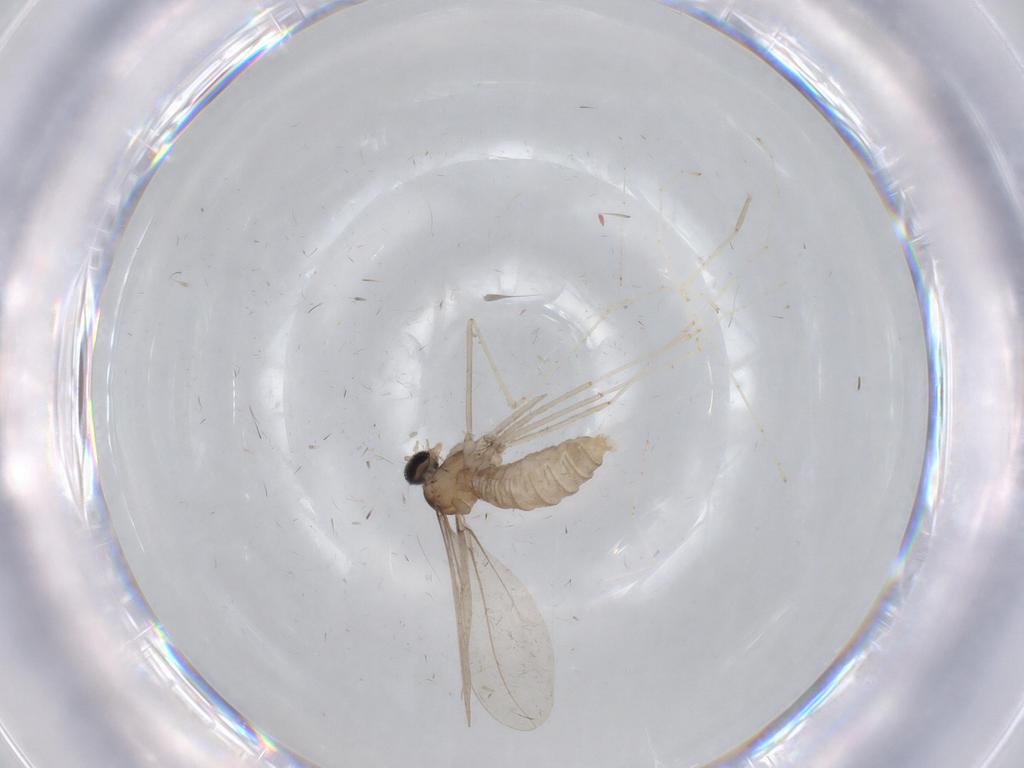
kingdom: Animalia
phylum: Arthropoda
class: Insecta
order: Diptera
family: Cecidomyiidae
